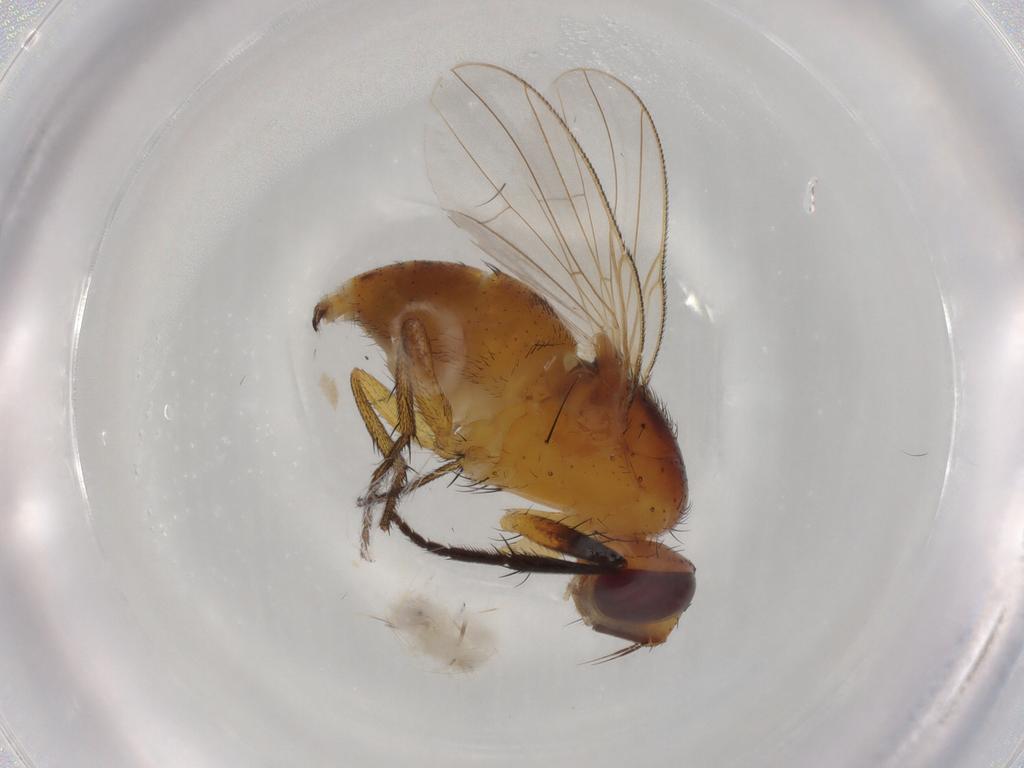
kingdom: Animalia
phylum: Arthropoda
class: Insecta
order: Diptera
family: Muscidae
